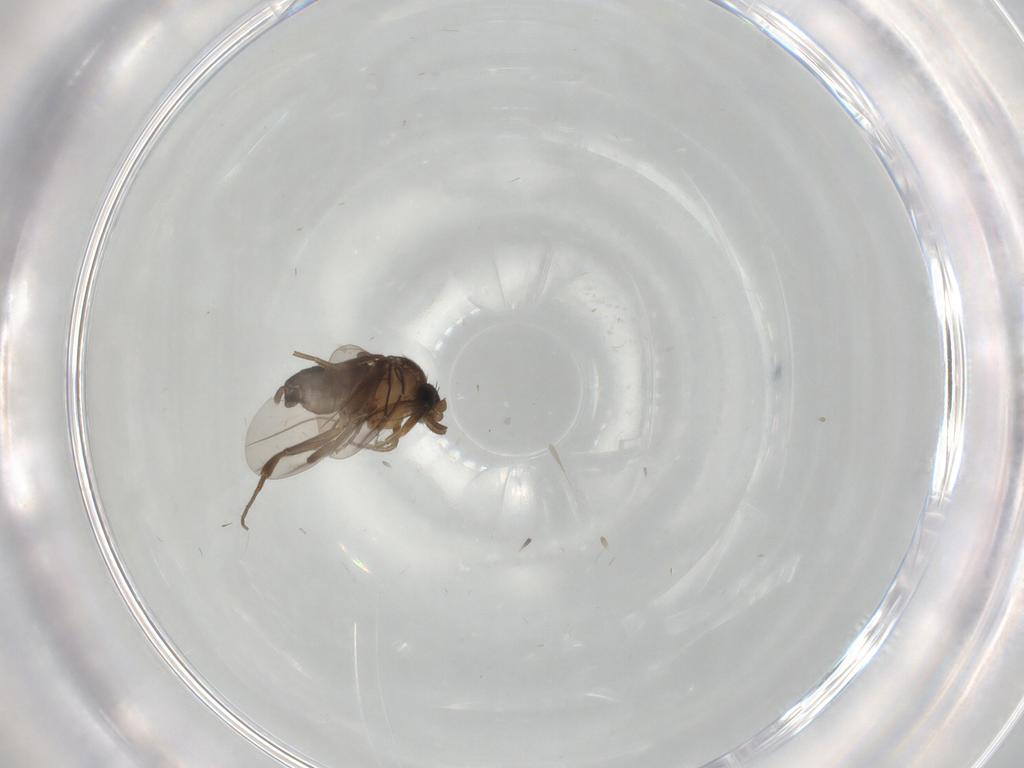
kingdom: Animalia
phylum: Arthropoda
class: Insecta
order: Diptera
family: Phoridae
